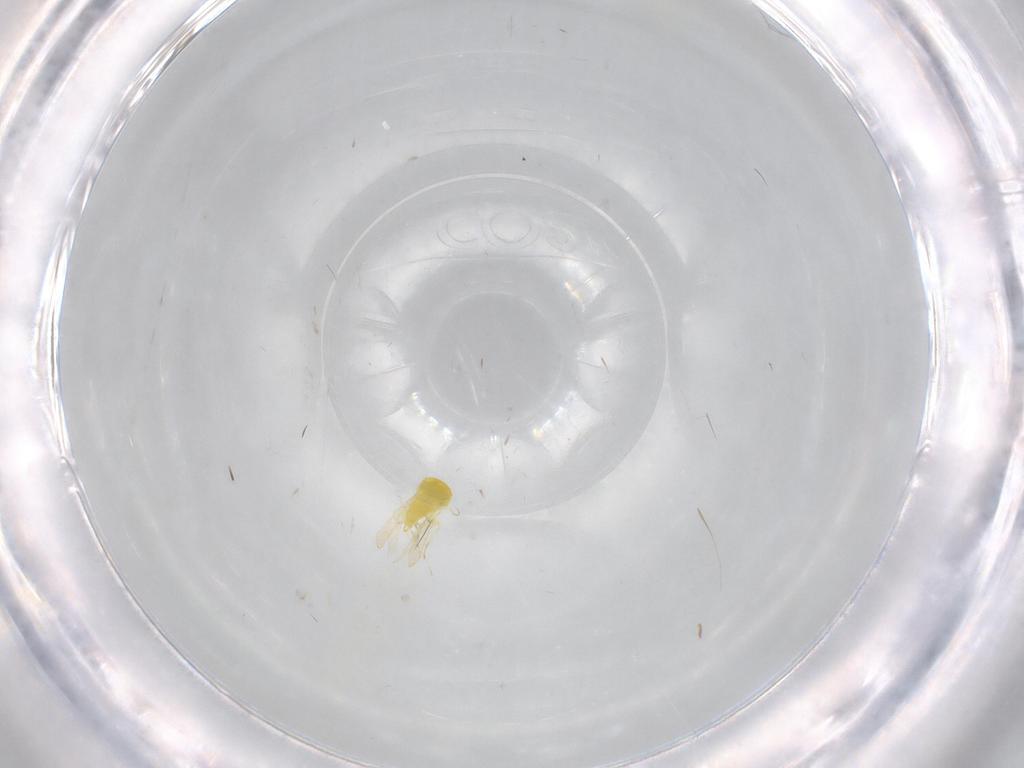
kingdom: Animalia
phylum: Arthropoda
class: Insecta
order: Hemiptera
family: Cercopidae
